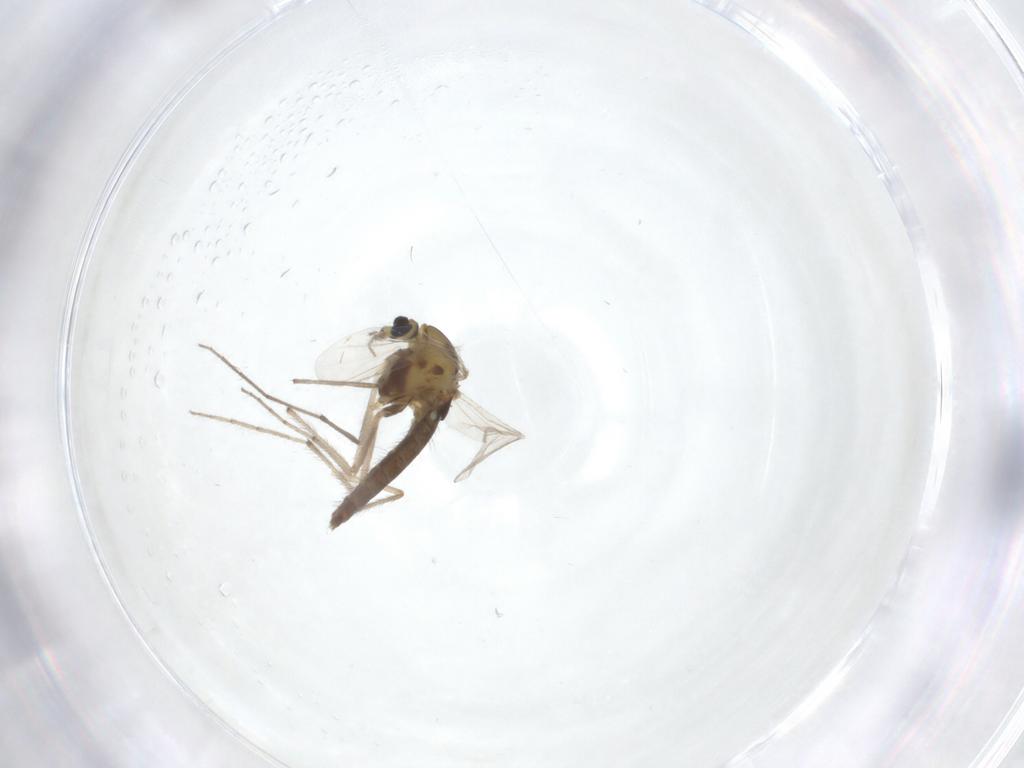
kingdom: Animalia
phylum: Arthropoda
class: Insecta
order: Diptera
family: Chironomidae
